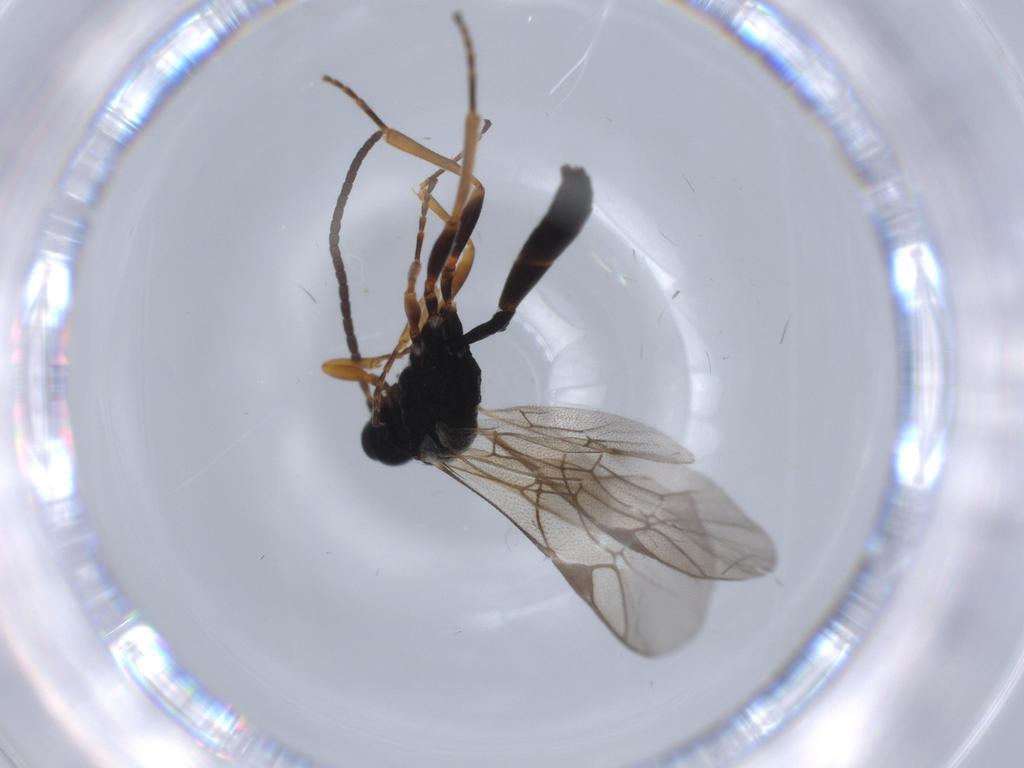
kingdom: Animalia
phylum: Arthropoda
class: Insecta
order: Hymenoptera
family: Ichneumonidae
